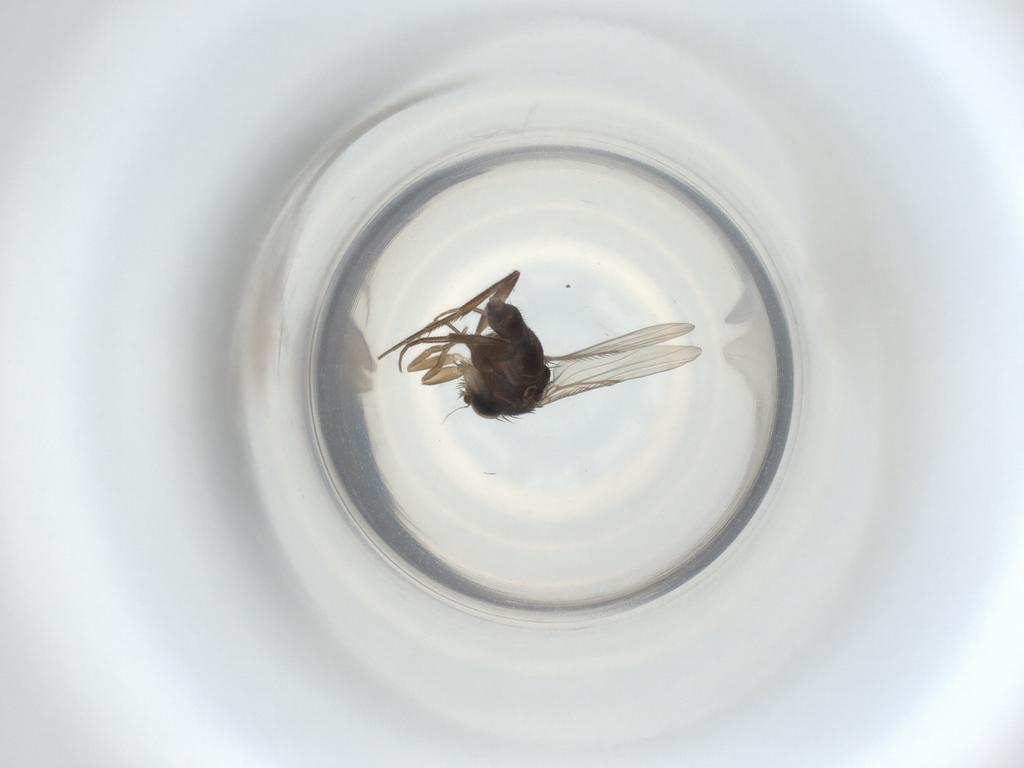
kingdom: Animalia
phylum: Arthropoda
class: Insecta
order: Diptera
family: Phoridae
